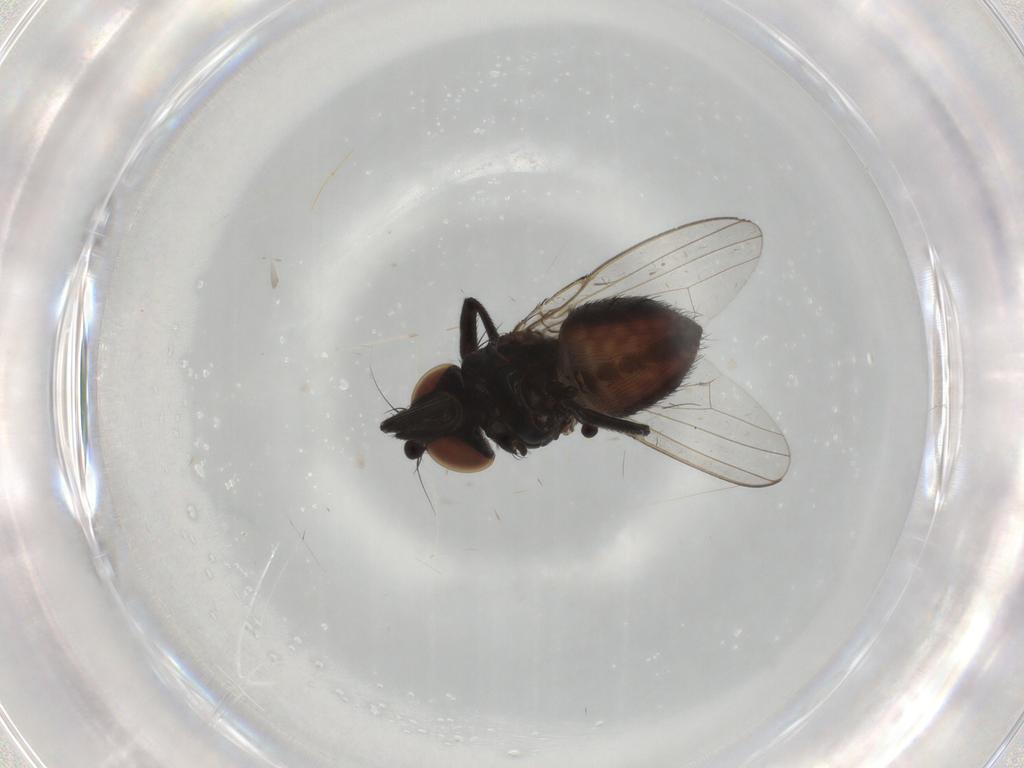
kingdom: Animalia
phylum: Arthropoda
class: Insecta
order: Diptera
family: Milichiidae
